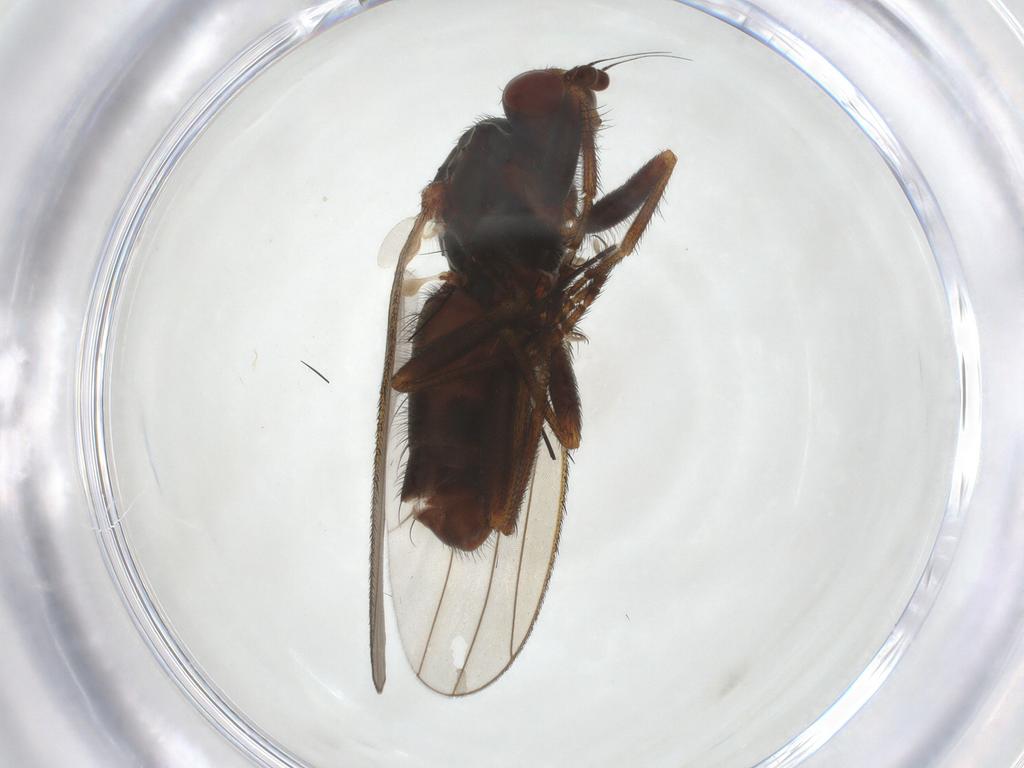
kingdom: Animalia
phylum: Arthropoda
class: Insecta
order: Diptera
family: Heleomyzidae
